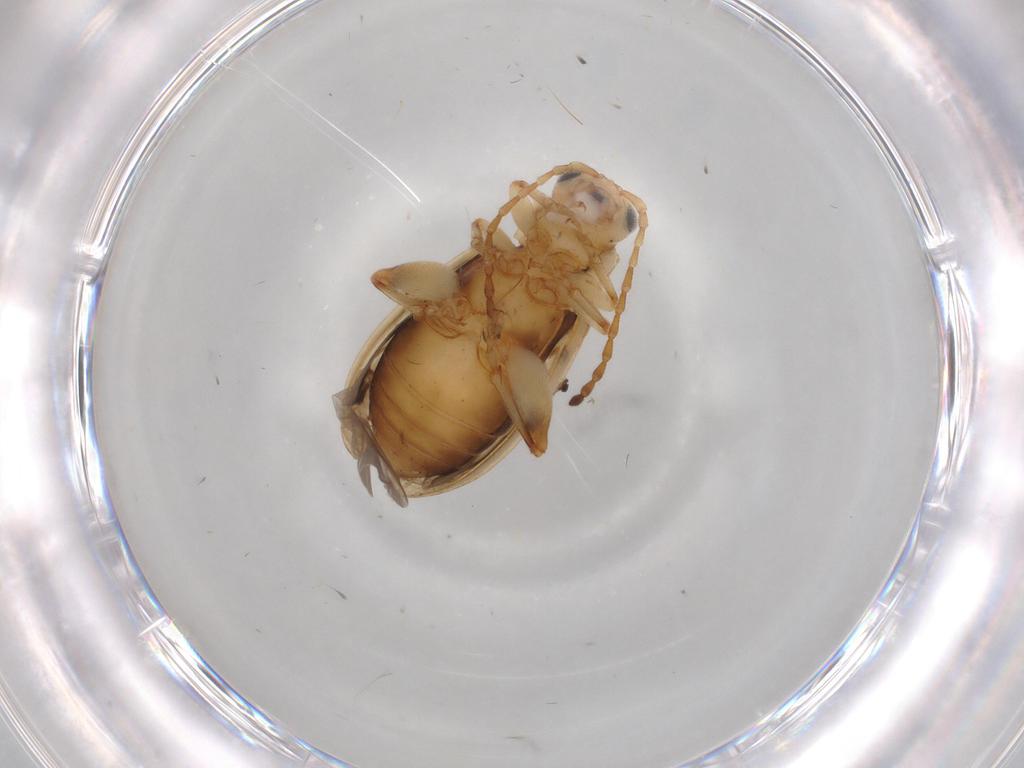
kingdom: Animalia
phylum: Arthropoda
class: Insecta
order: Coleoptera
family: Chrysomelidae
